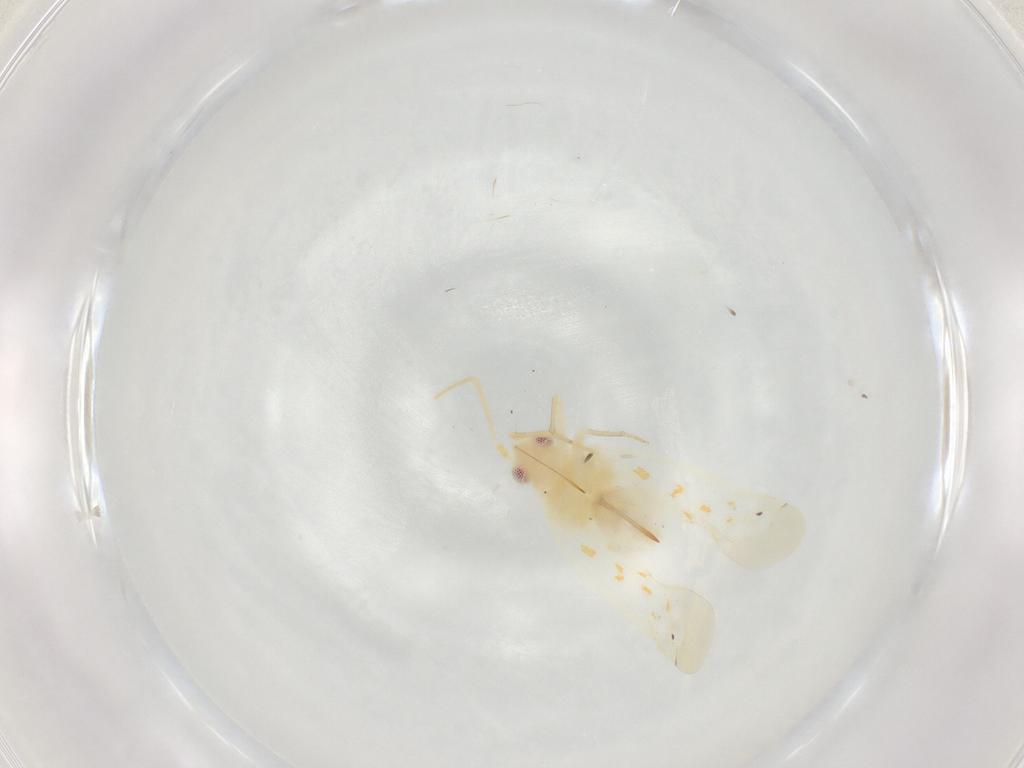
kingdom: Animalia
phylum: Arthropoda
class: Insecta
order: Hemiptera
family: Miridae
